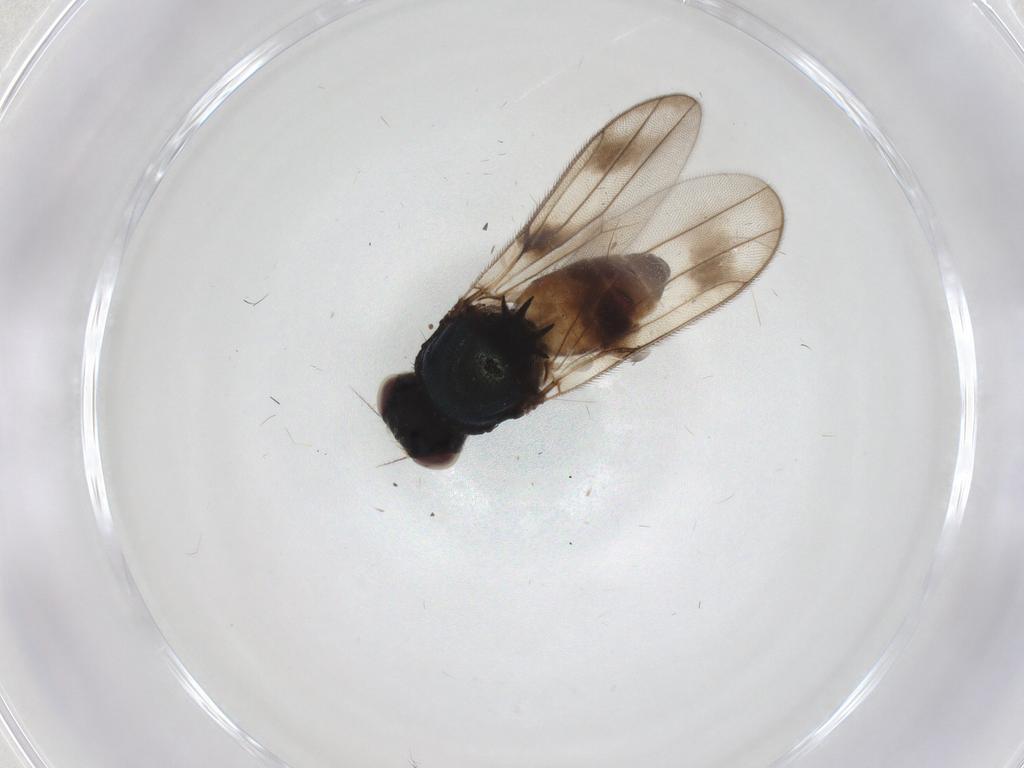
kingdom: Animalia
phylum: Arthropoda
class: Insecta
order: Diptera
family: Chloropidae
